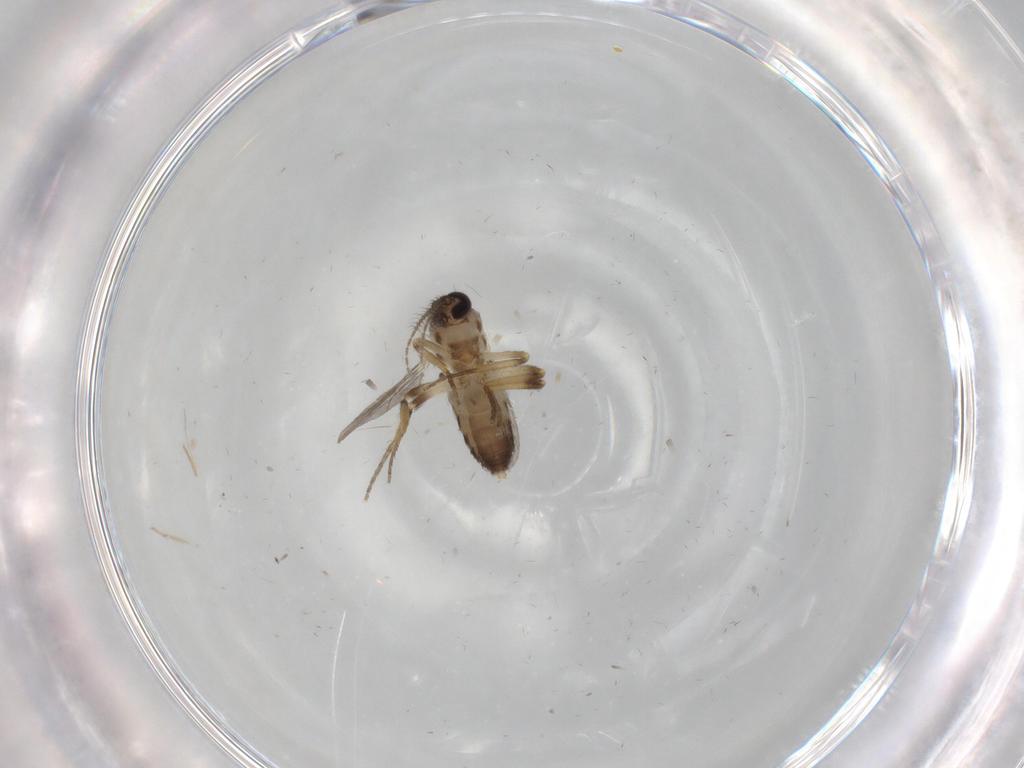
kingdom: Animalia
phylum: Arthropoda
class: Insecta
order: Diptera
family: Ceratopogonidae
